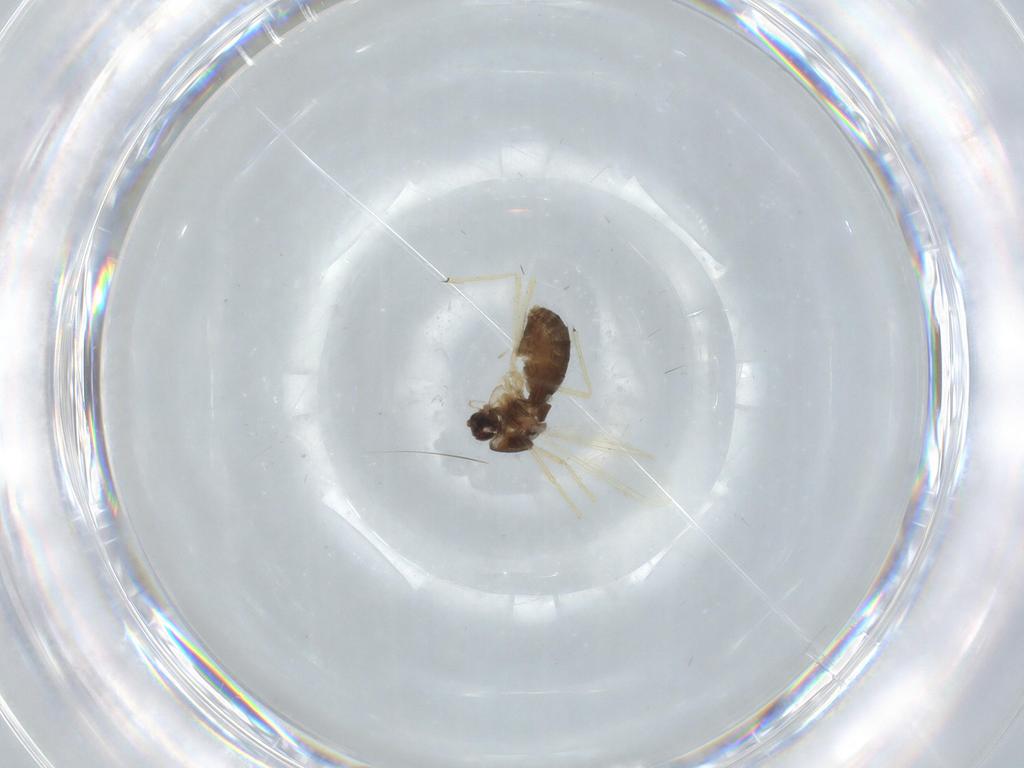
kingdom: Animalia
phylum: Arthropoda
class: Insecta
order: Diptera
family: Chironomidae
